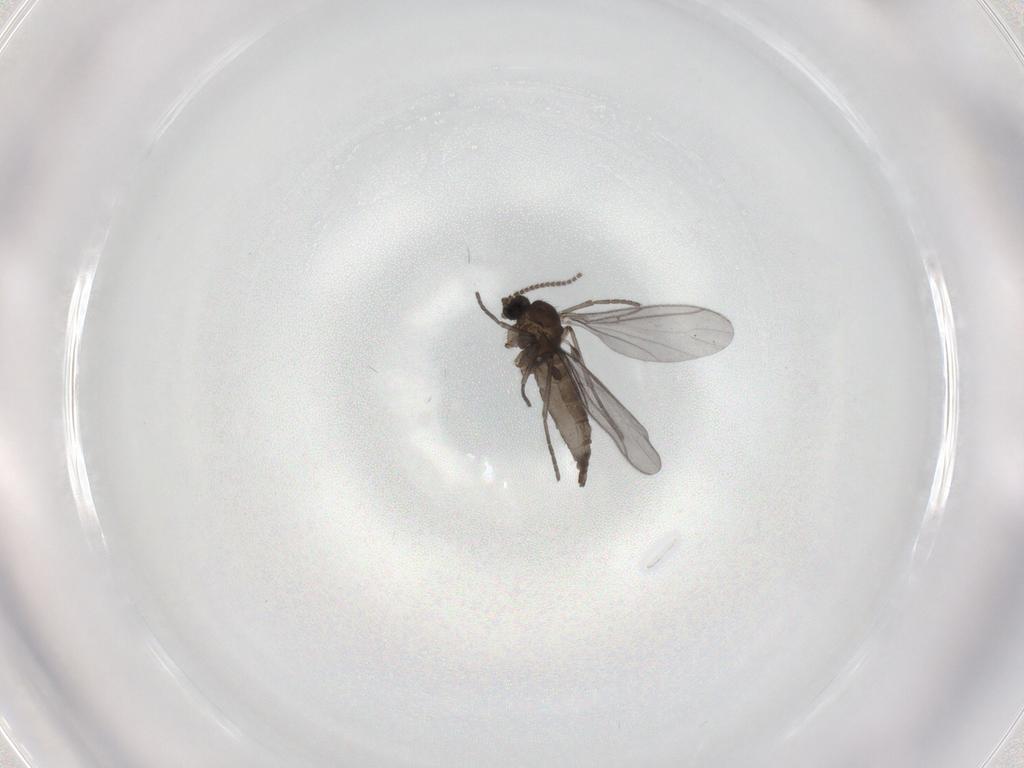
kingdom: Animalia
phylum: Arthropoda
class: Insecta
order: Diptera
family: Sciaridae
